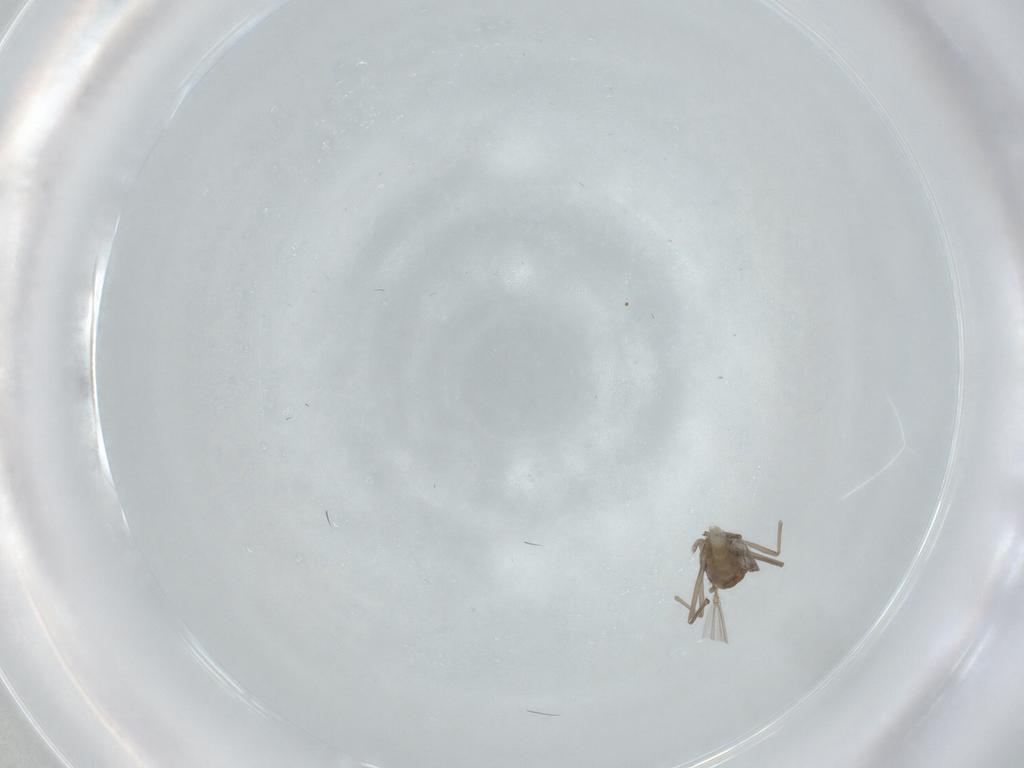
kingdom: Animalia
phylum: Arthropoda
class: Insecta
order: Diptera
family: Chironomidae
